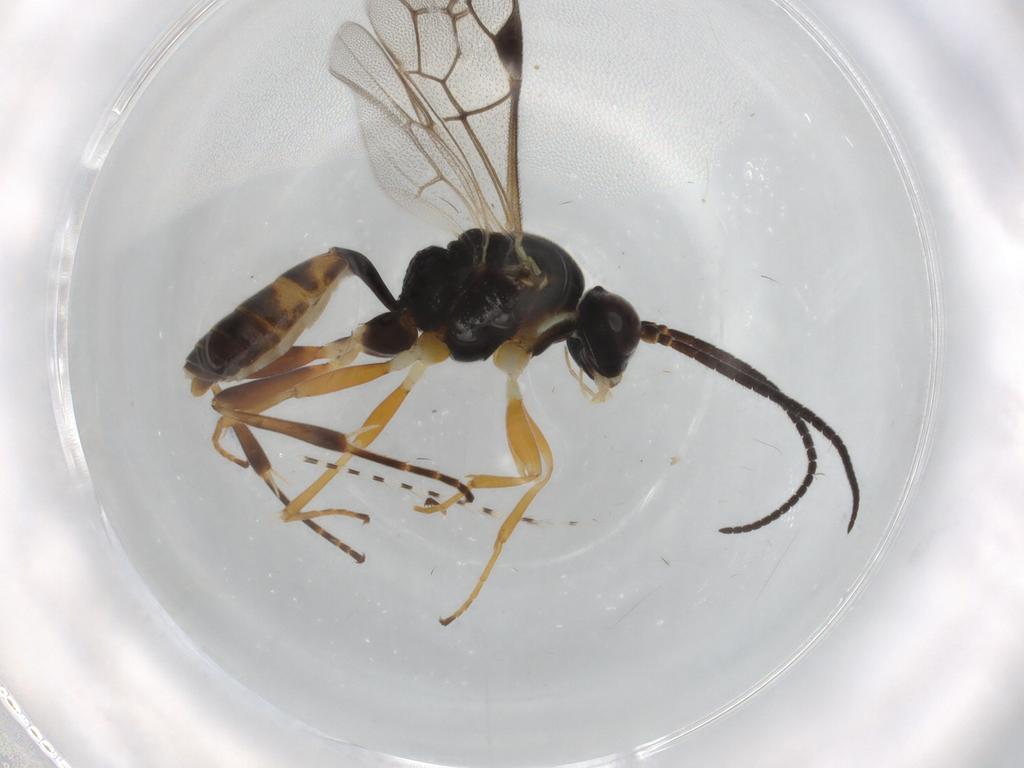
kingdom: Animalia
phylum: Arthropoda
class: Insecta
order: Hymenoptera
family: Ichneumonidae
